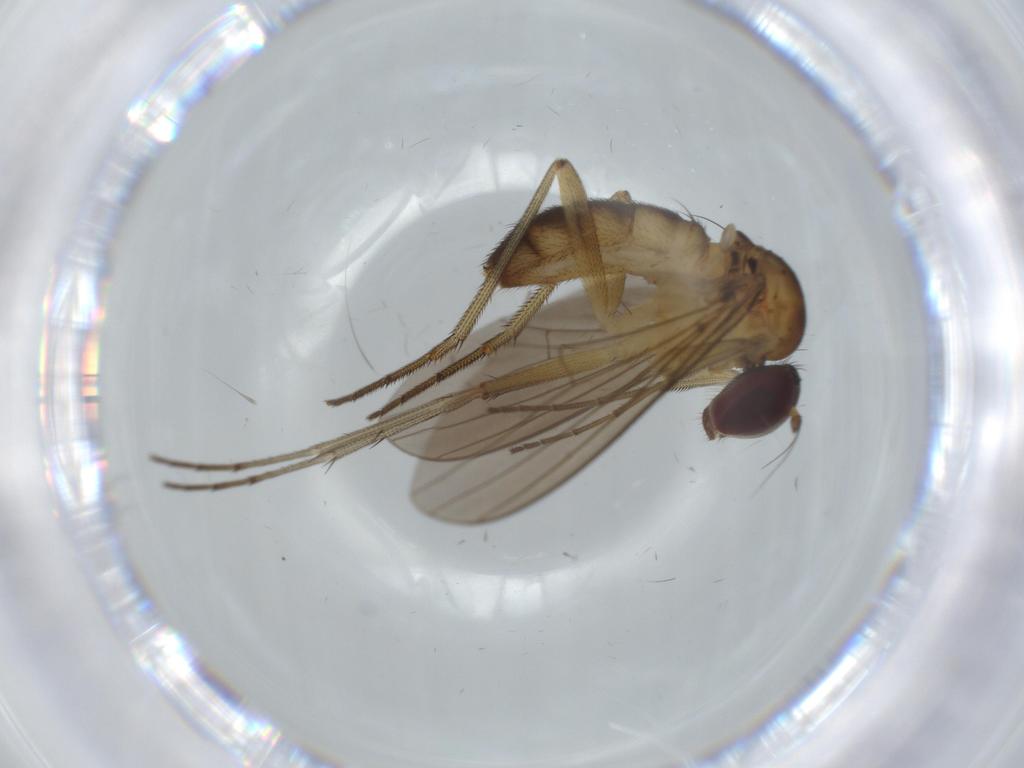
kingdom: Animalia
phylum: Arthropoda
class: Insecta
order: Diptera
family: Dolichopodidae
